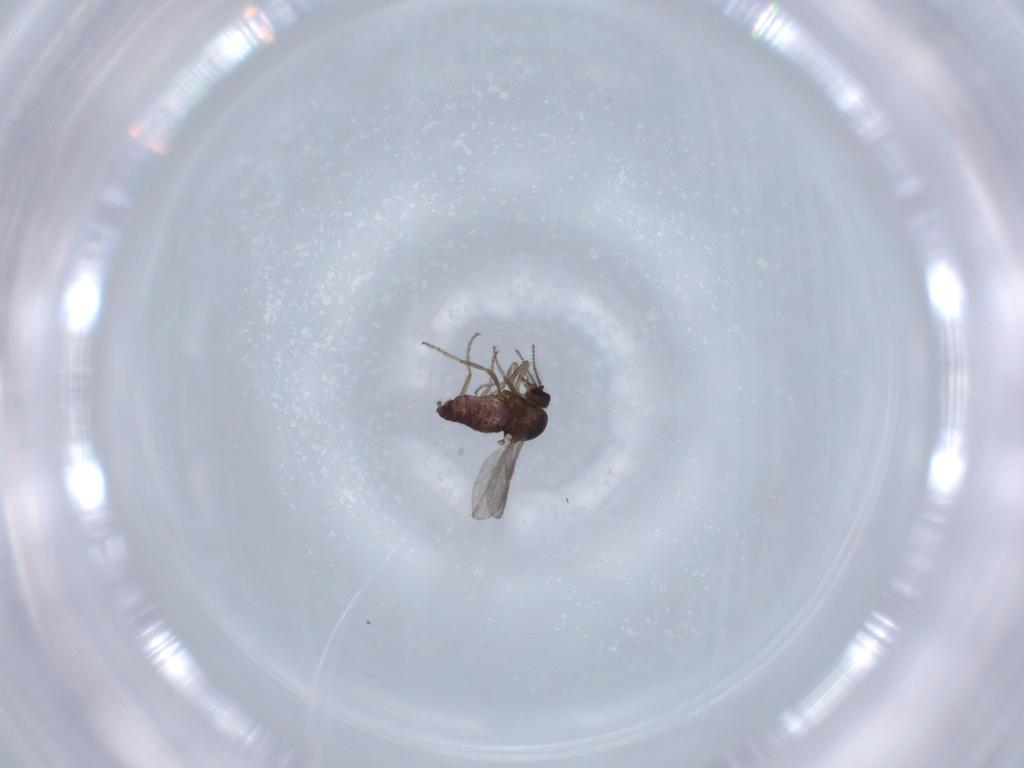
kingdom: Animalia
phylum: Arthropoda
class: Insecta
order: Diptera
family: Ceratopogonidae
